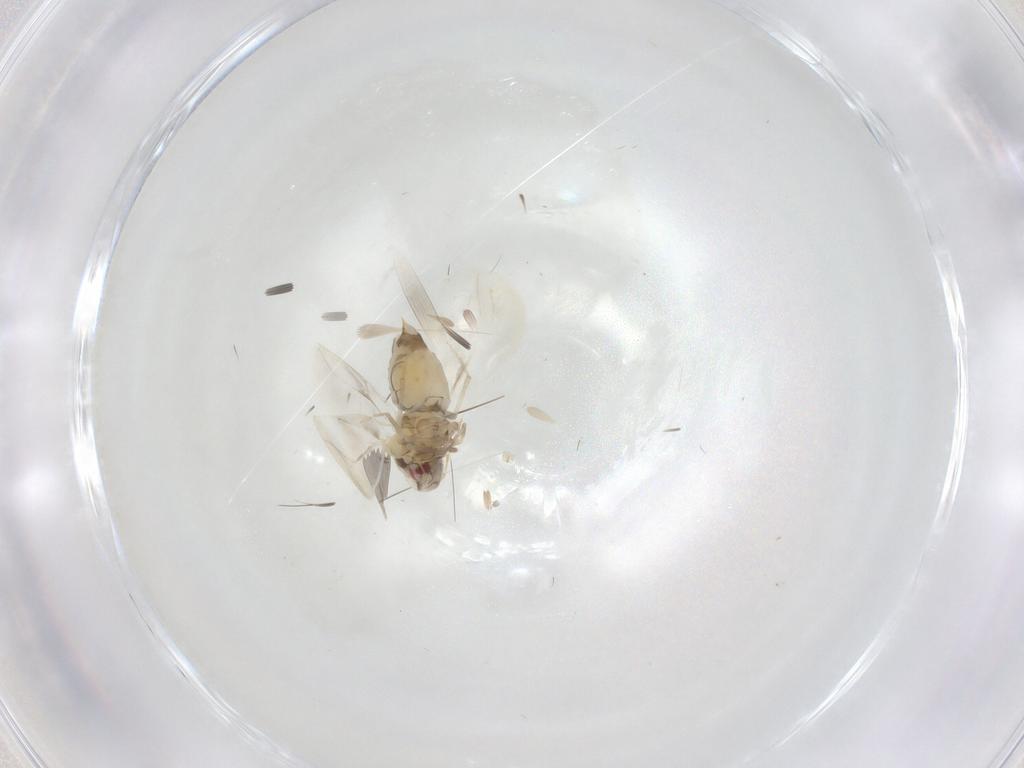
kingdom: Animalia
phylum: Arthropoda
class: Insecta
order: Hemiptera
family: Aleyrodidae
